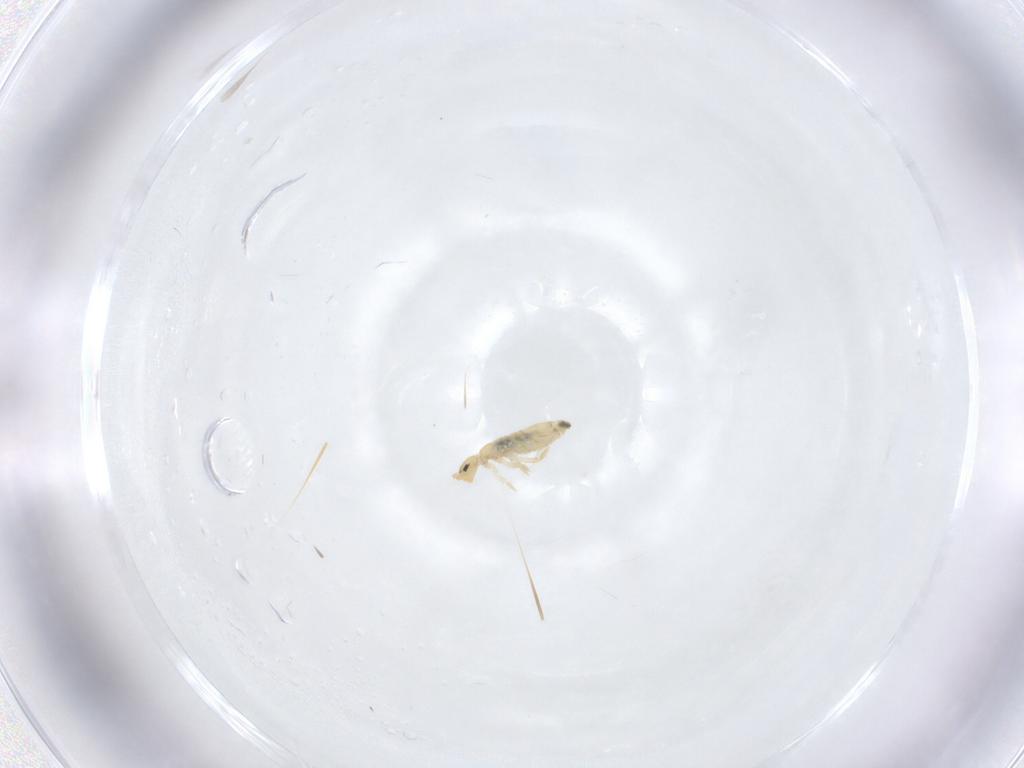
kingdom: Animalia
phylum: Arthropoda
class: Collembola
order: Entomobryomorpha
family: Entomobryidae
